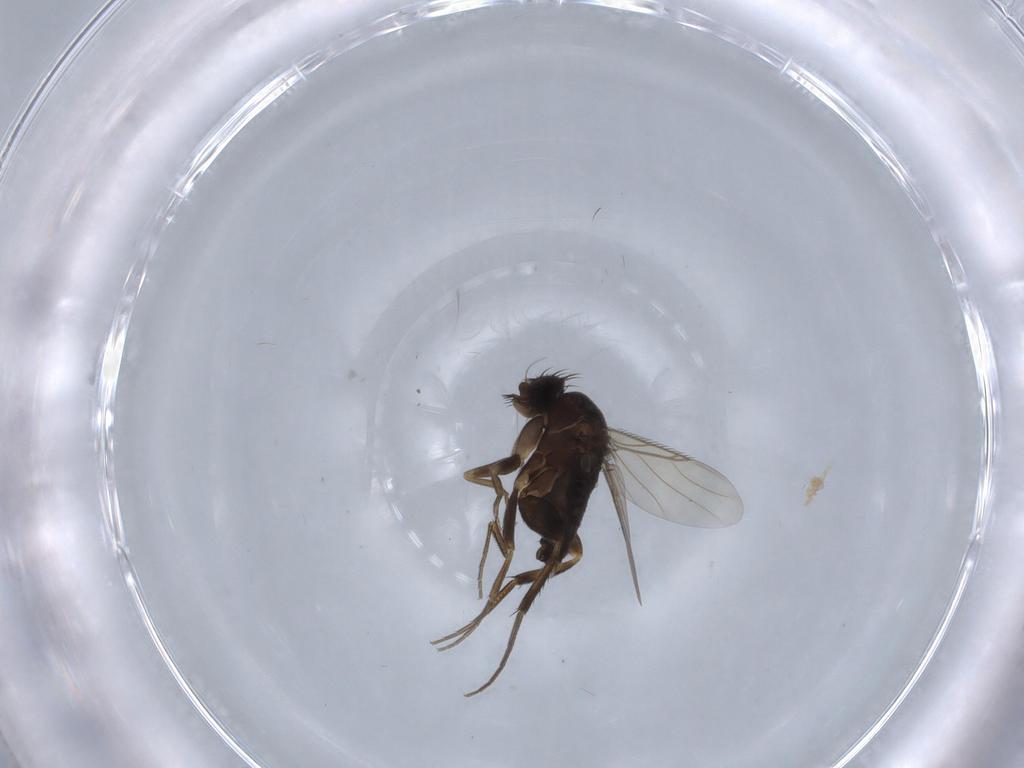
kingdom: Animalia
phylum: Arthropoda
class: Insecta
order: Diptera
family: Phoridae
